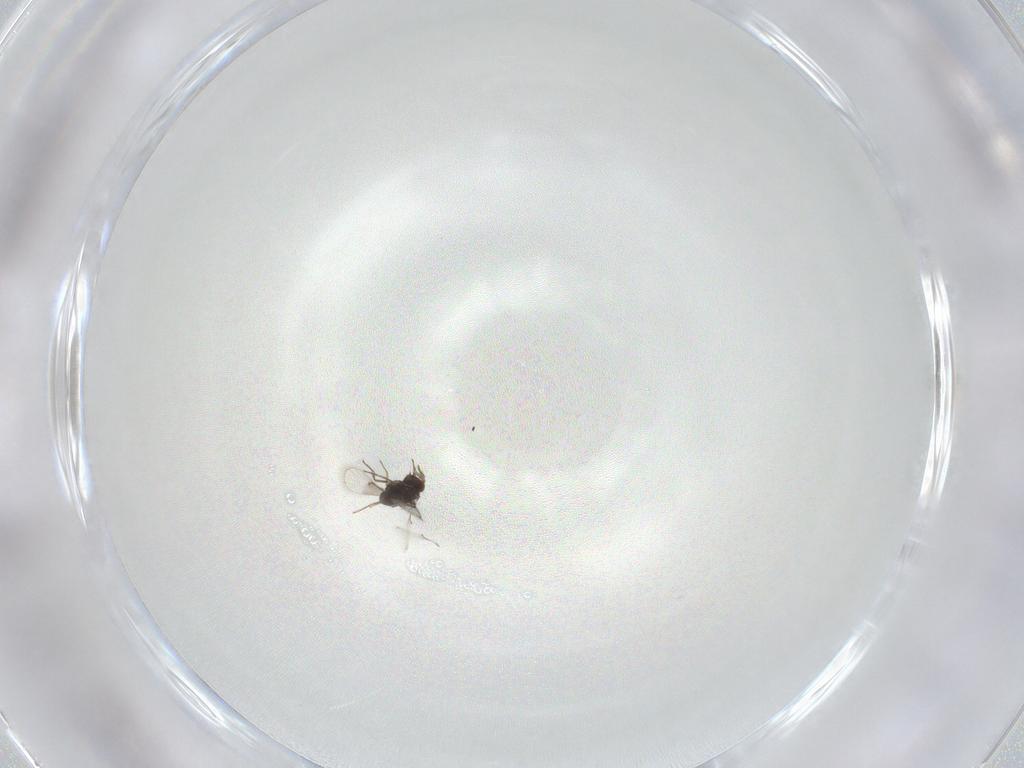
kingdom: Animalia
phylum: Arthropoda
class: Insecta
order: Hymenoptera
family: Trichogrammatidae
